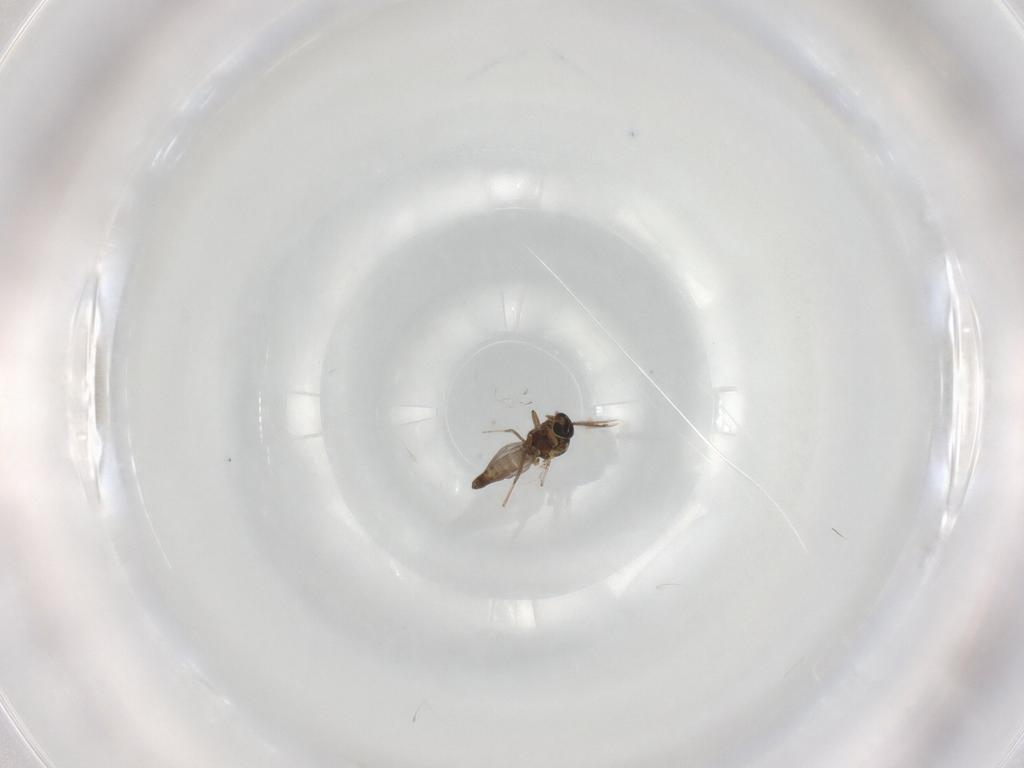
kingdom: Animalia
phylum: Arthropoda
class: Insecta
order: Diptera
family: Ceratopogonidae
